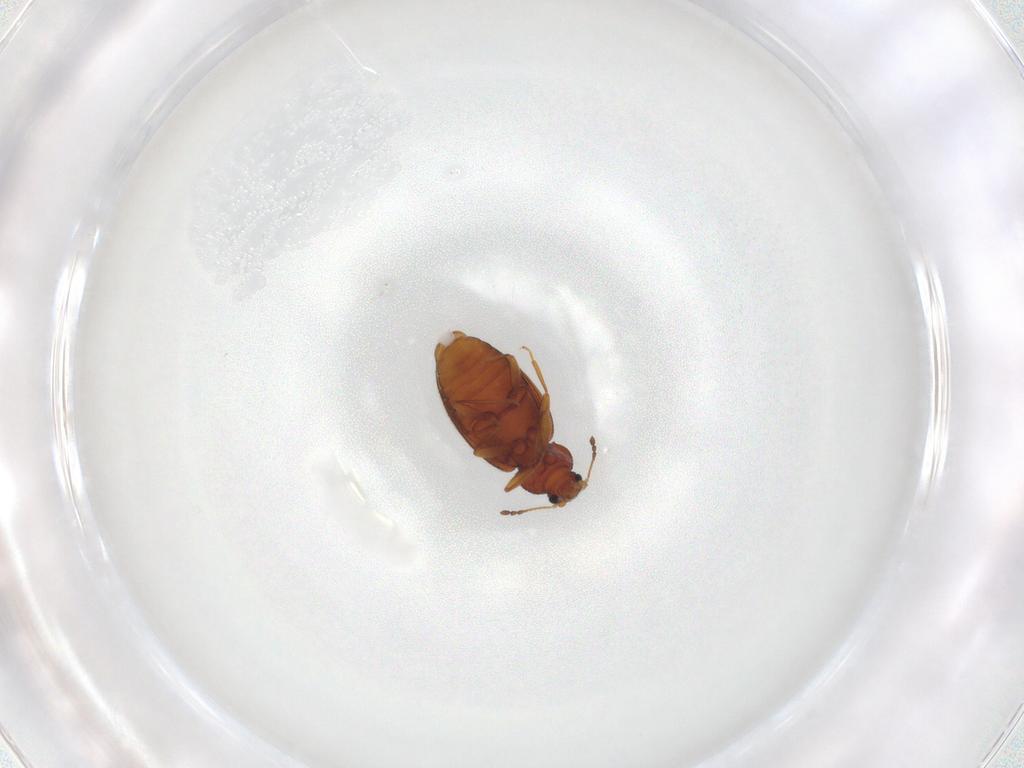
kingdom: Animalia
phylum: Arthropoda
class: Insecta
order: Coleoptera
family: Latridiidae
